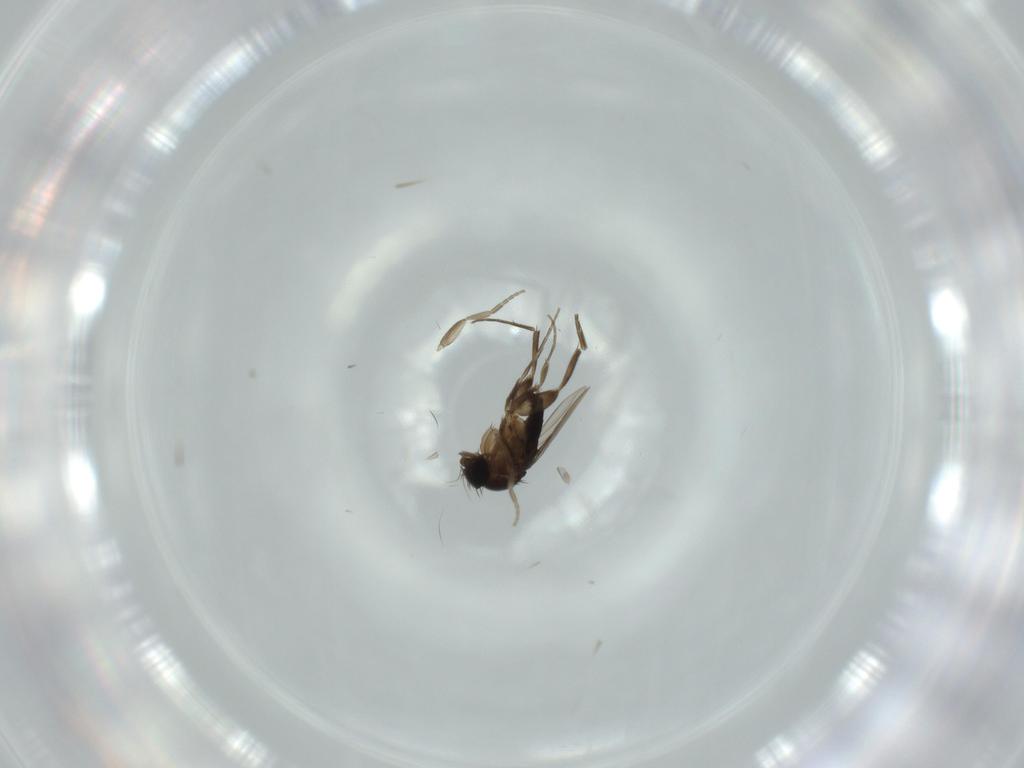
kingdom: Animalia
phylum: Arthropoda
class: Insecta
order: Diptera
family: Phoridae
